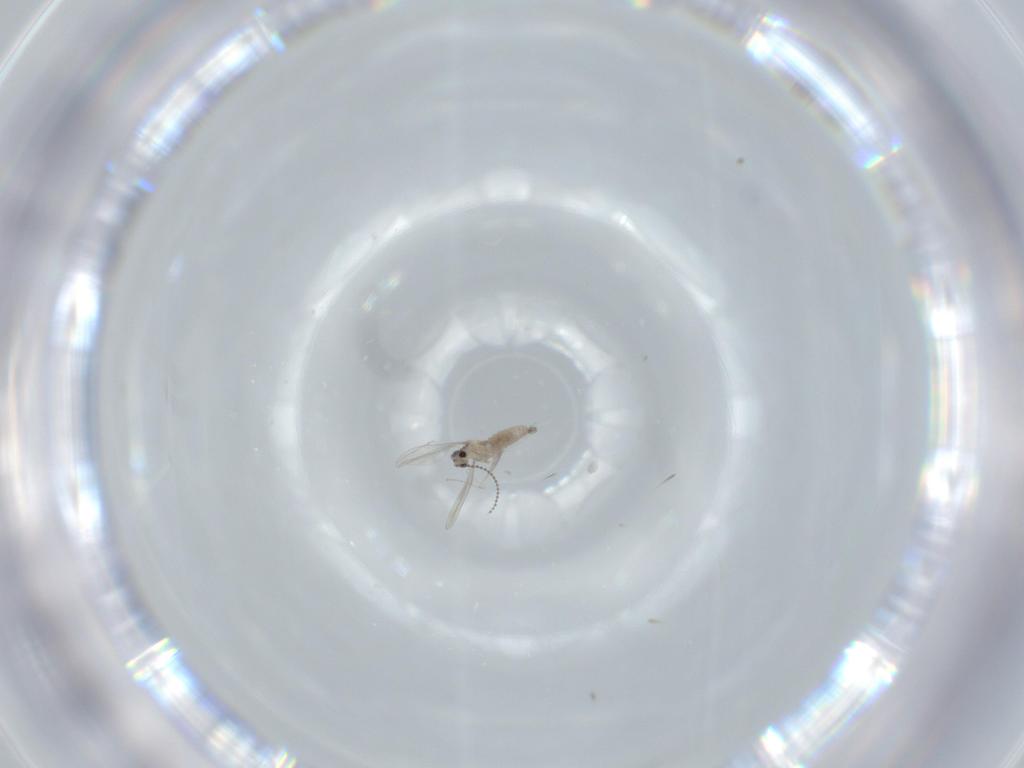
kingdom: Animalia
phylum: Arthropoda
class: Insecta
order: Diptera
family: Cecidomyiidae
